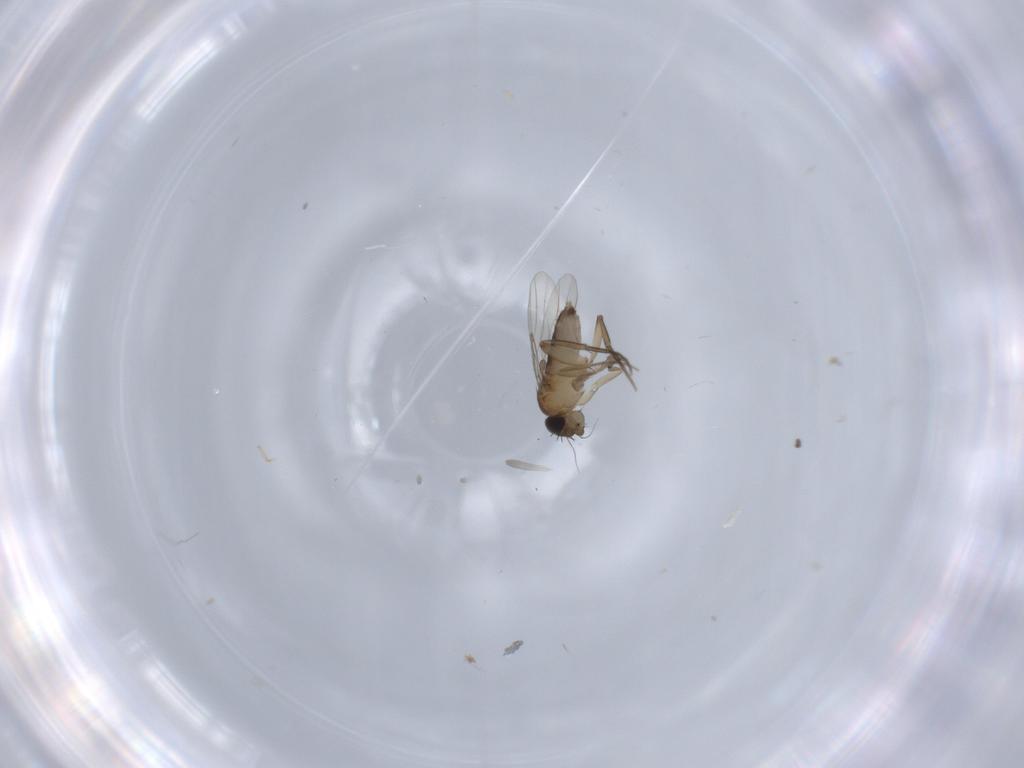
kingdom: Animalia
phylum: Arthropoda
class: Insecta
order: Diptera
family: Phoridae
